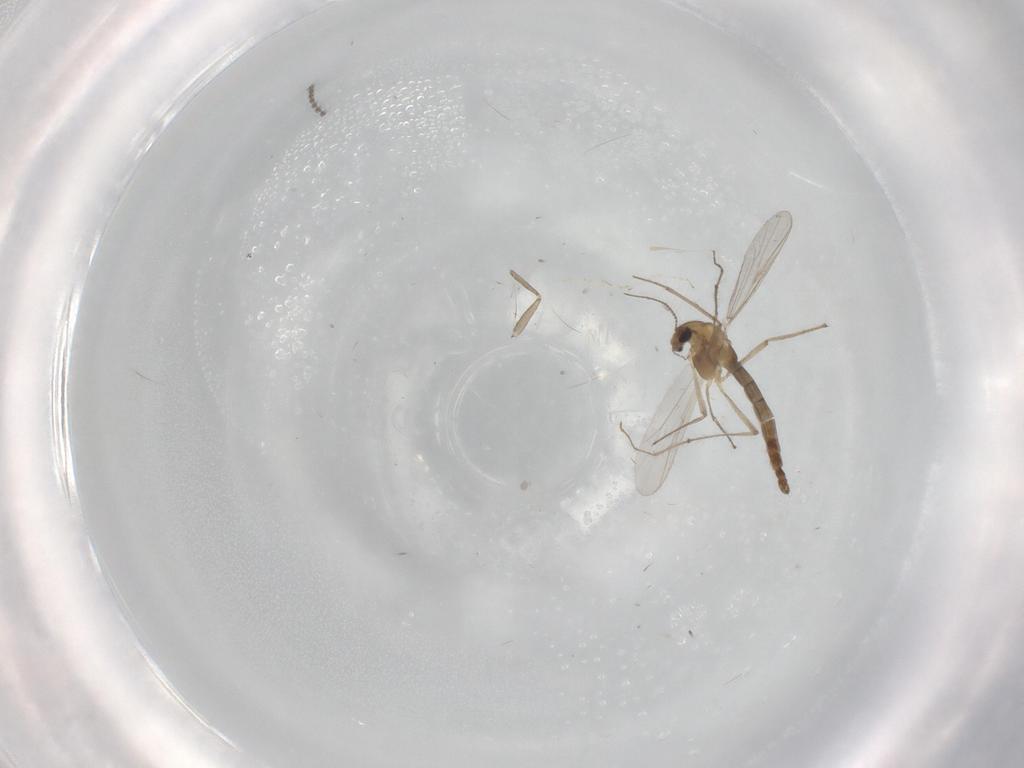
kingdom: Animalia
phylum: Arthropoda
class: Insecta
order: Diptera
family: Cecidomyiidae
